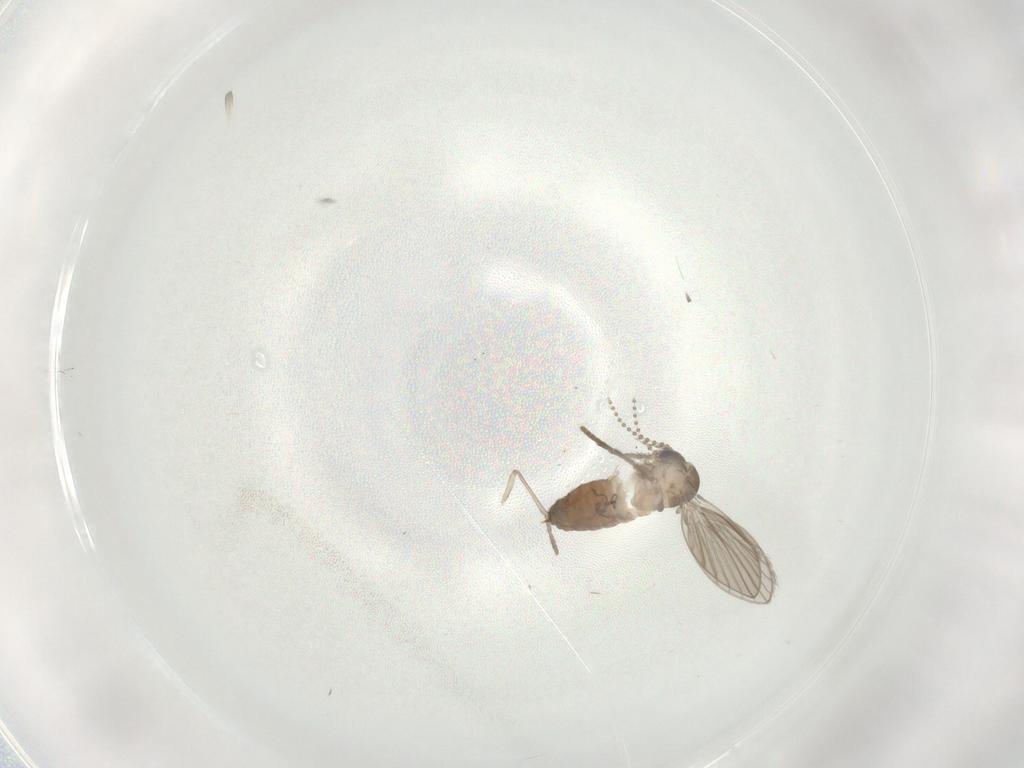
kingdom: Animalia
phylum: Arthropoda
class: Insecta
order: Diptera
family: Psychodidae
